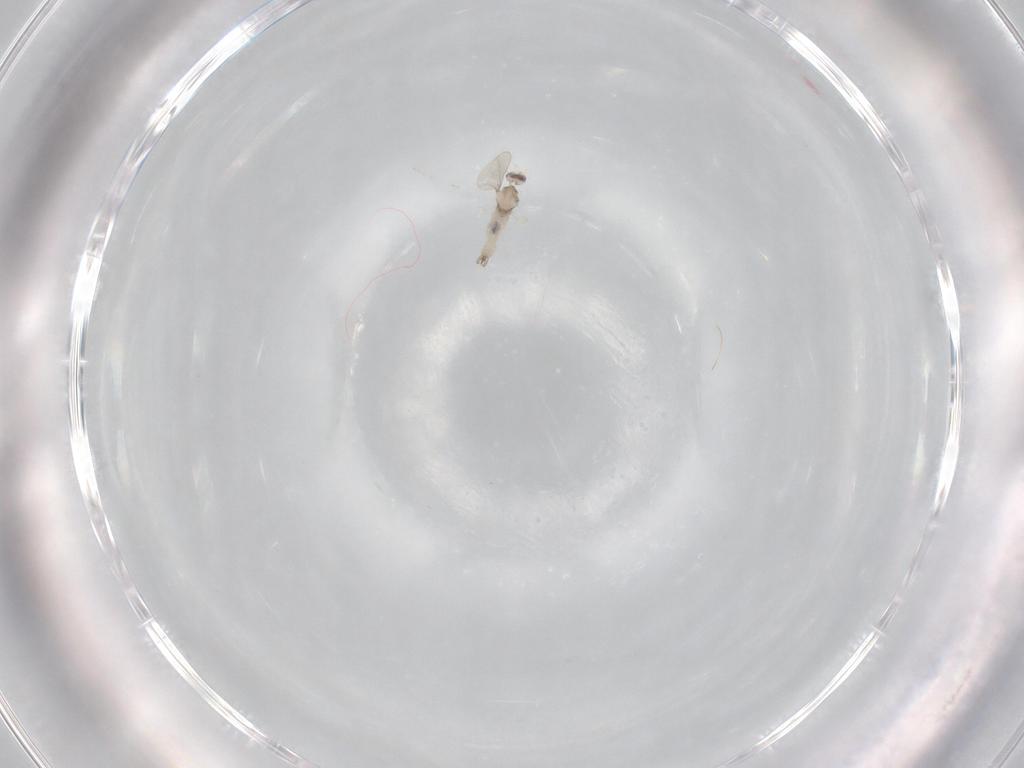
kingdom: Animalia
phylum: Arthropoda
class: Insecta
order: Diptera
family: Cecidomyiidae
